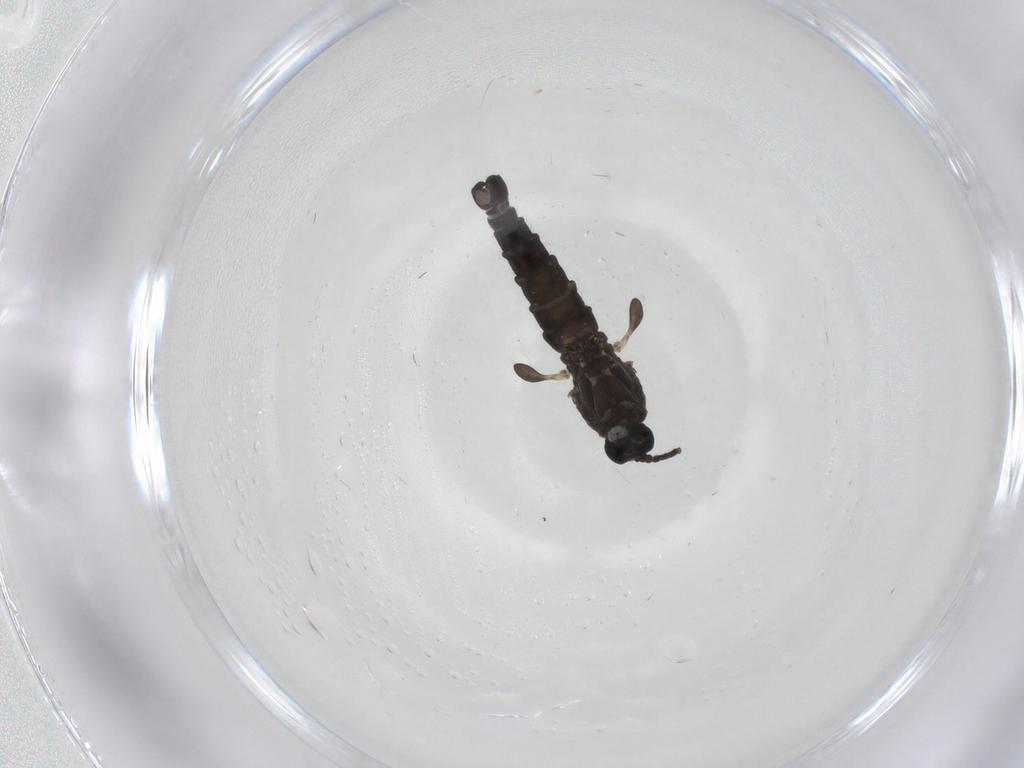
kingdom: Animalia
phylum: Arthropoda
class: Insecta
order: Diptera
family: Sciaridae
